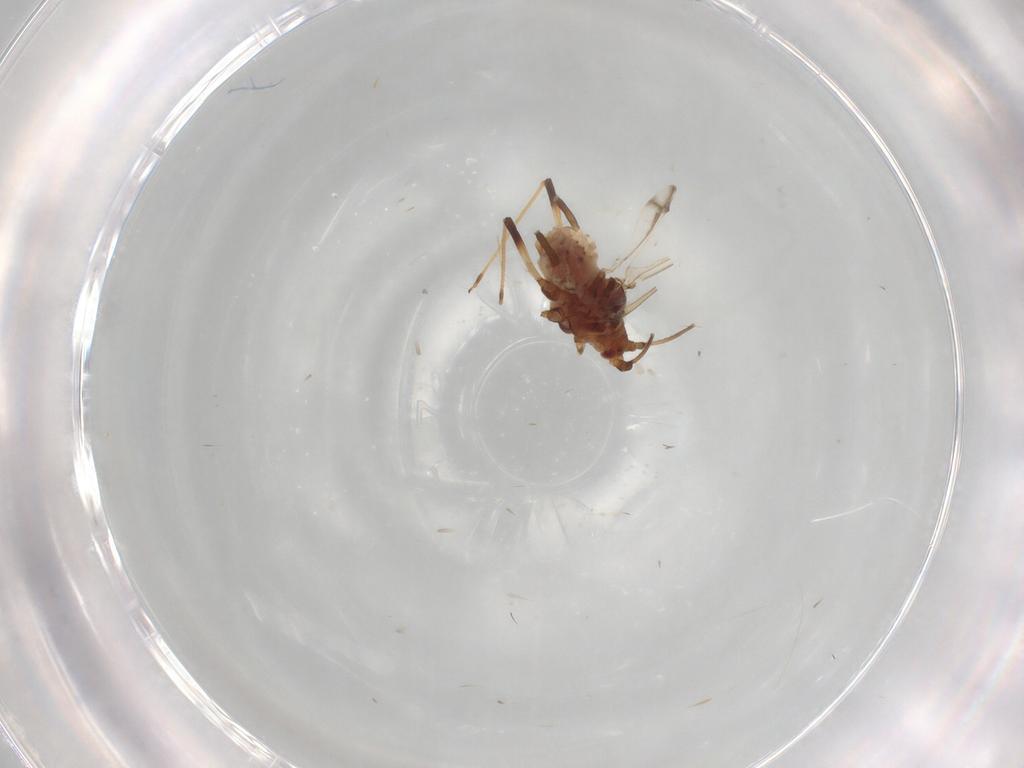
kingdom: Animalia
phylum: Arthropoda
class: Insecta
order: Hemiptera
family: Aphididae
